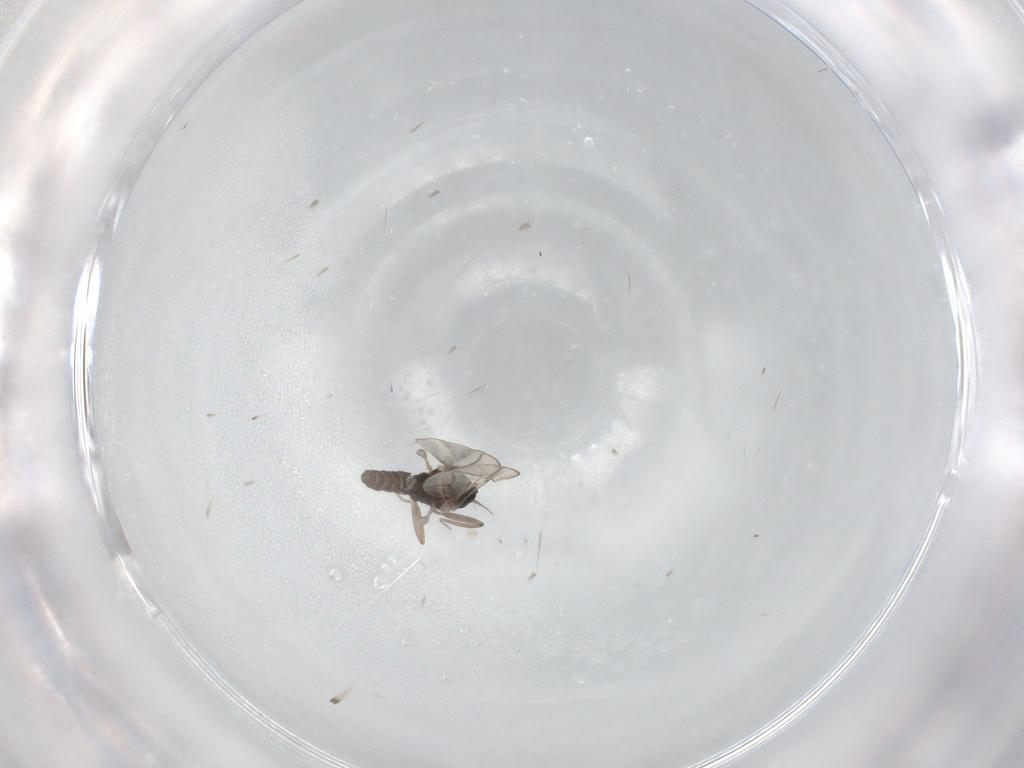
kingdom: Animalia
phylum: Arthropoda
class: Insecta
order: Diptera
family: Cecidomyiidae
